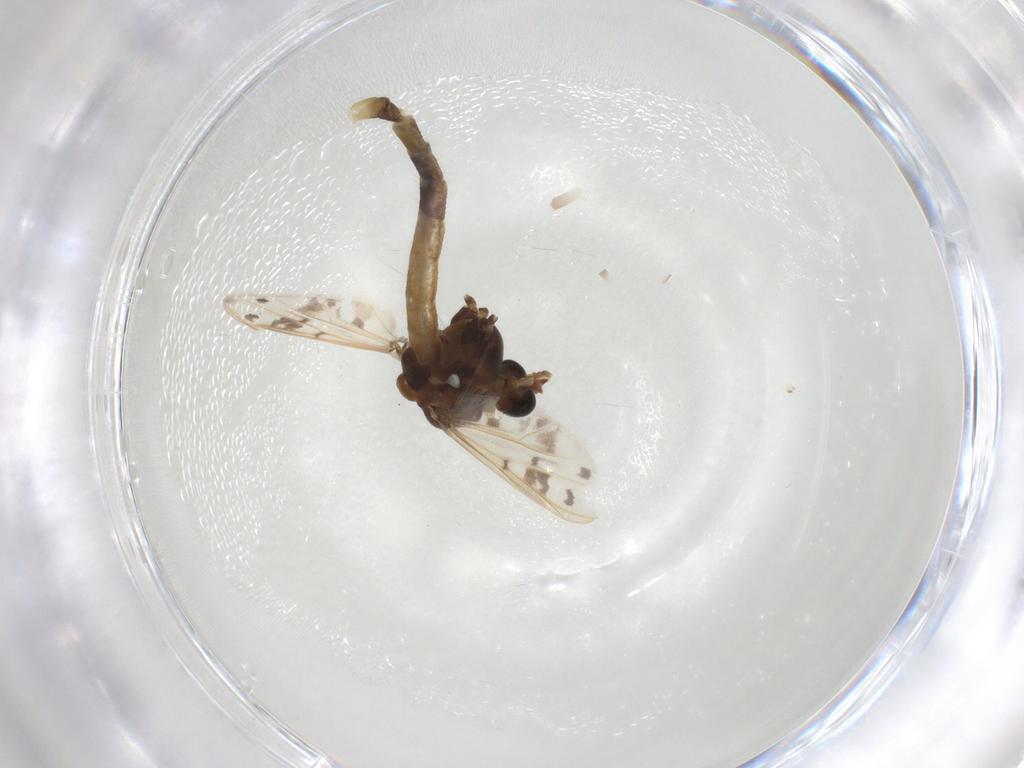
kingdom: Animalia
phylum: Arthropoda
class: Insecta
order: Diptera
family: Chironomidae
